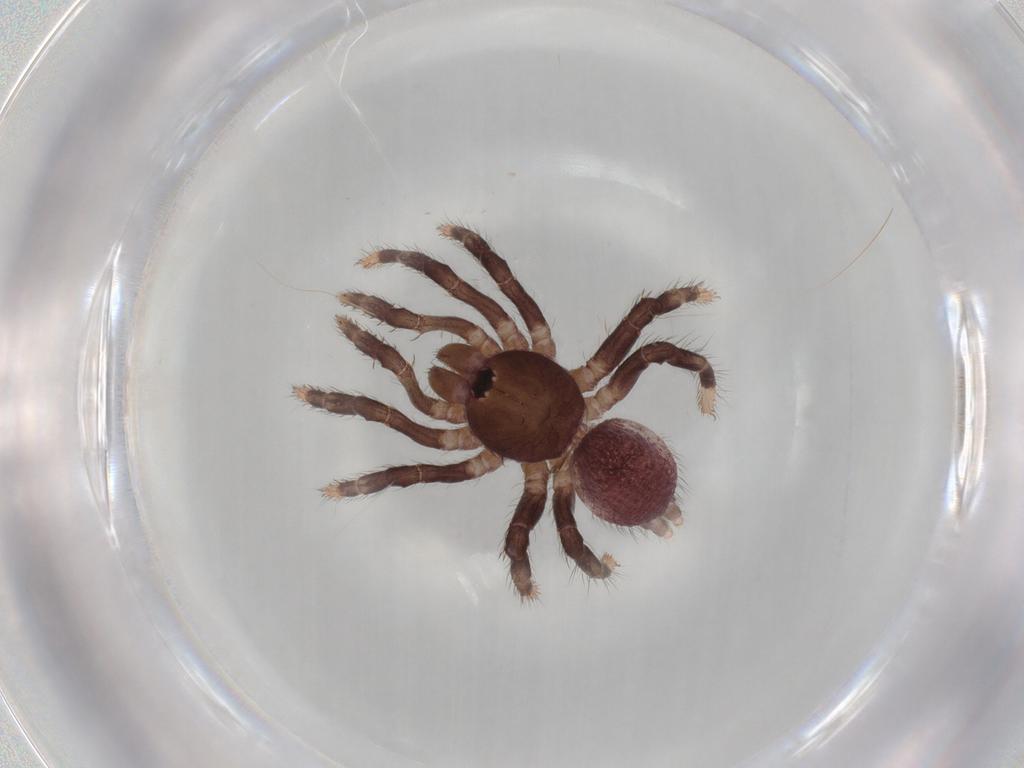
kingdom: Animalia
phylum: Arthropoda
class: Arachnida
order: Araneae
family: Halonoproctidae
